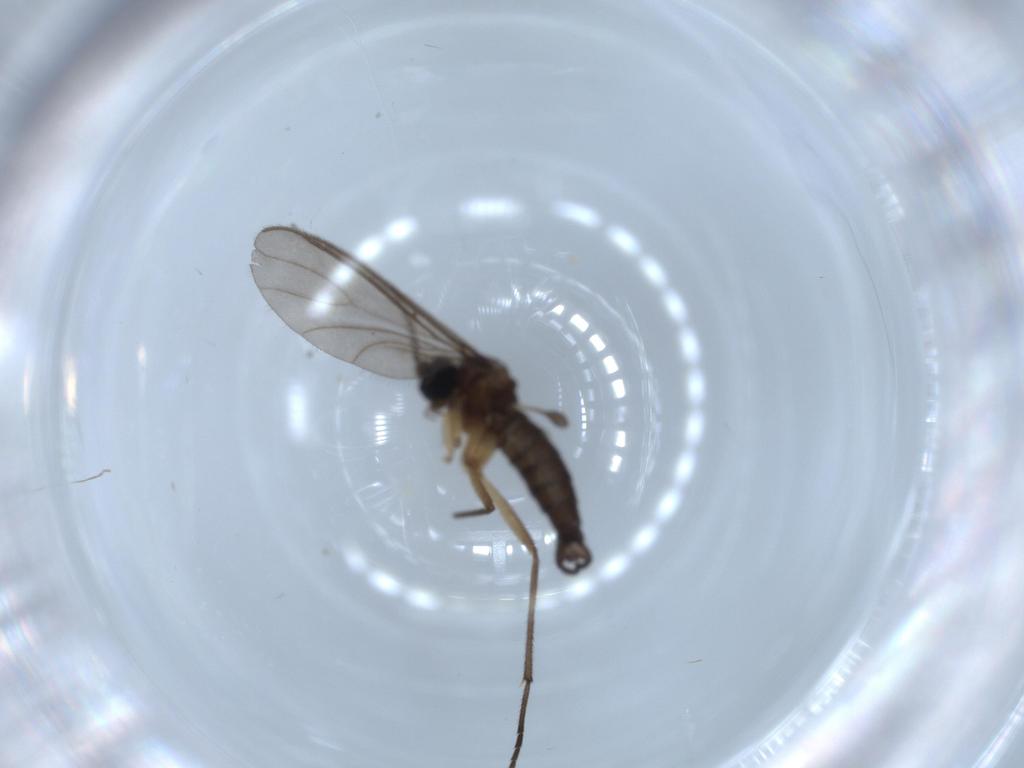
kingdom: Animalia
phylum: Arthropoda
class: Insecta
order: Diptera
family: Sciaridae
